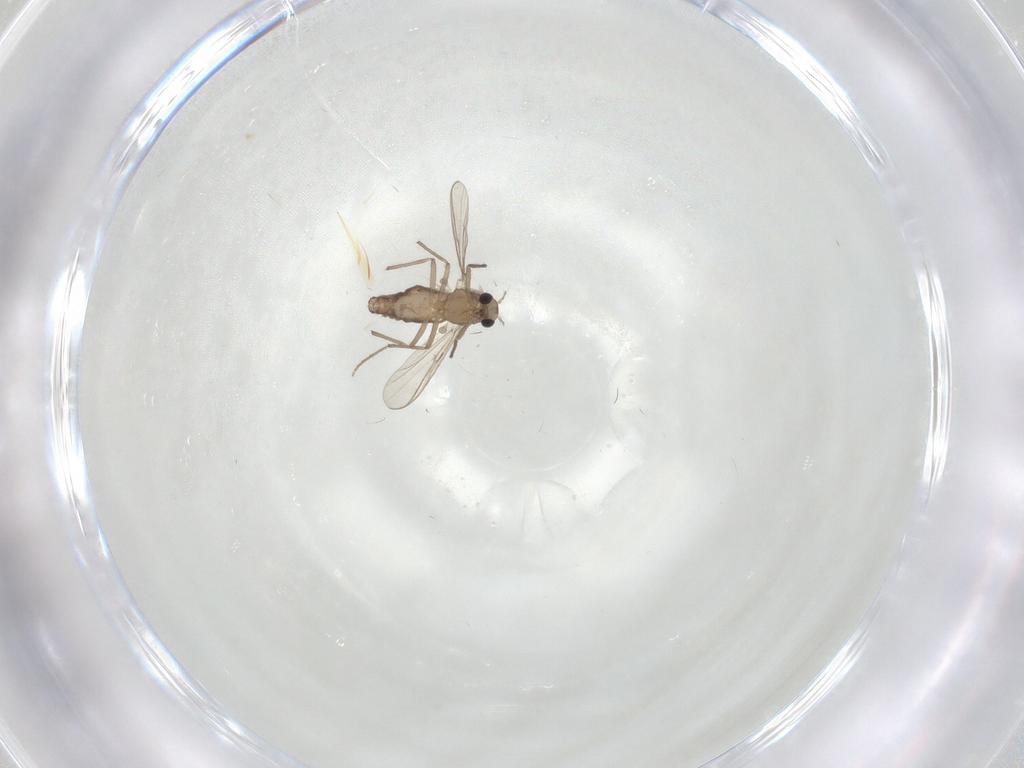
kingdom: Animalia
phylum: Arthropoda
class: Insecta
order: Diptera
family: Chironomidae
